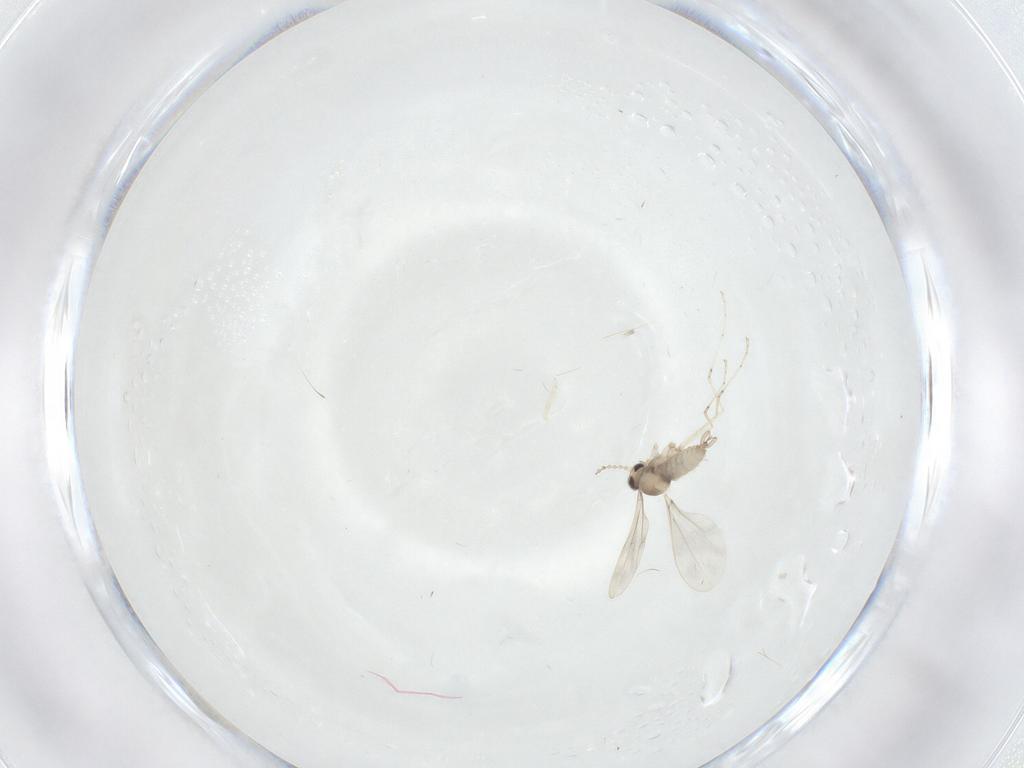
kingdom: Animalia
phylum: Arthropoda
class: Insecta
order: Diptera
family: Cecidomyiidae
